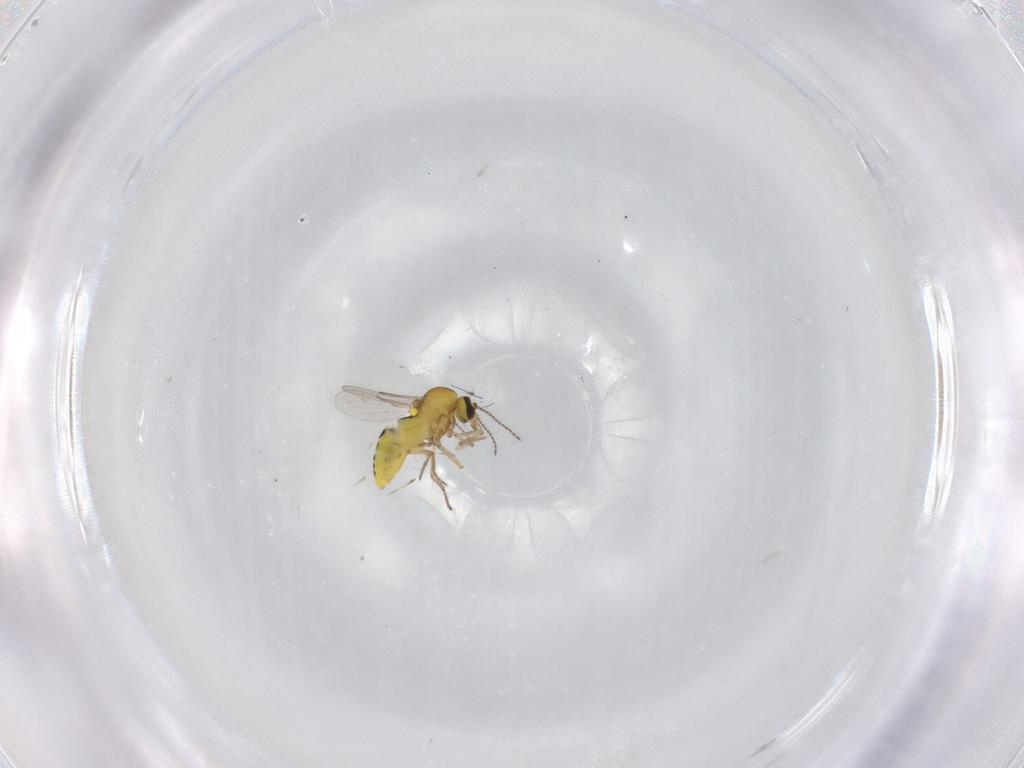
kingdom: Animalia
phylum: Arthropoda
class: Insecta
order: Diptera
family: Ceratopogonidae
